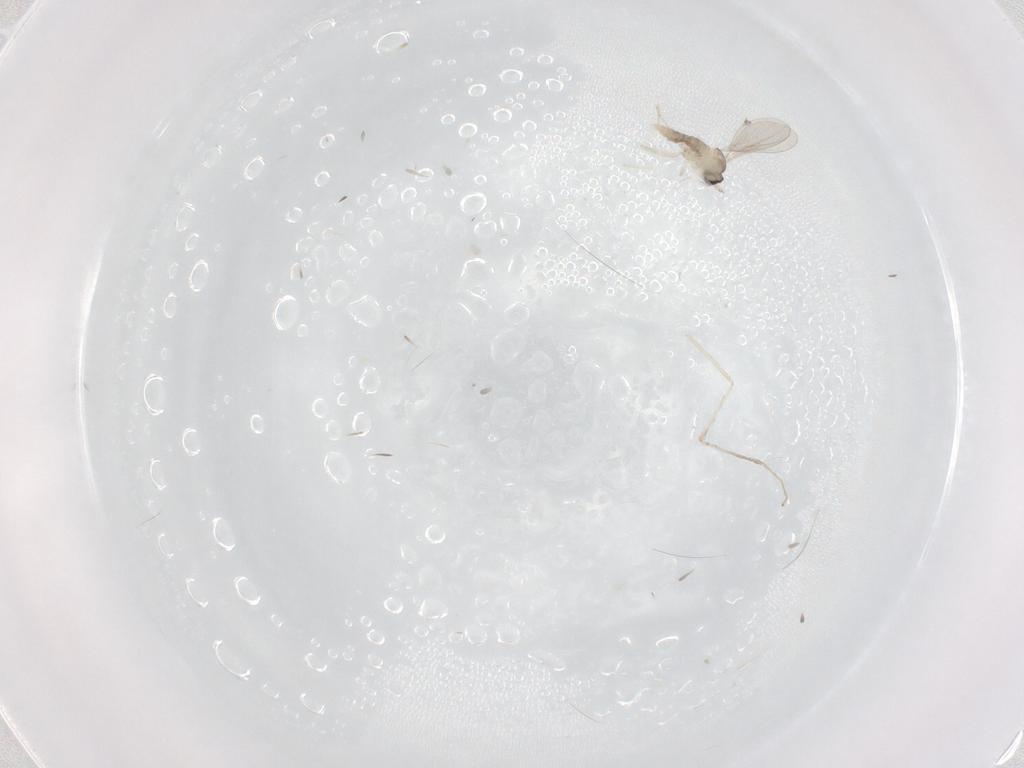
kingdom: Animalia
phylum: Arthropoda
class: Insecta
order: Diptera
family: Cecidomyiidae
